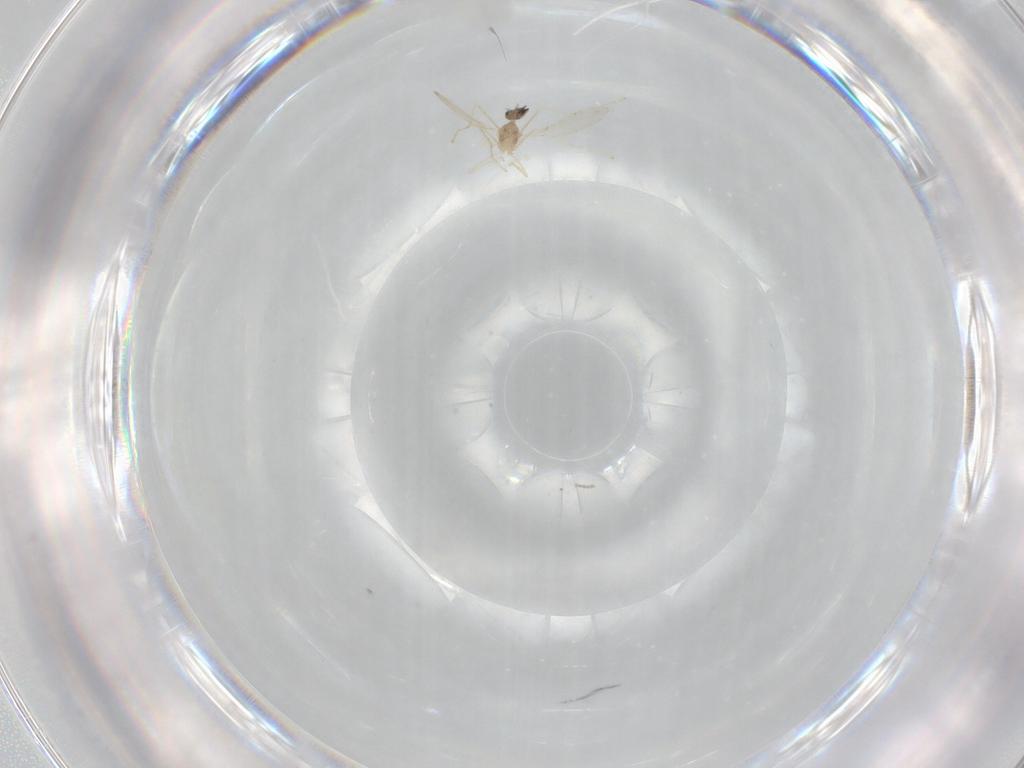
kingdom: Animalia
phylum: Arthropoda
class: Insecta
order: Diptera
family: Cecidomyiidae
